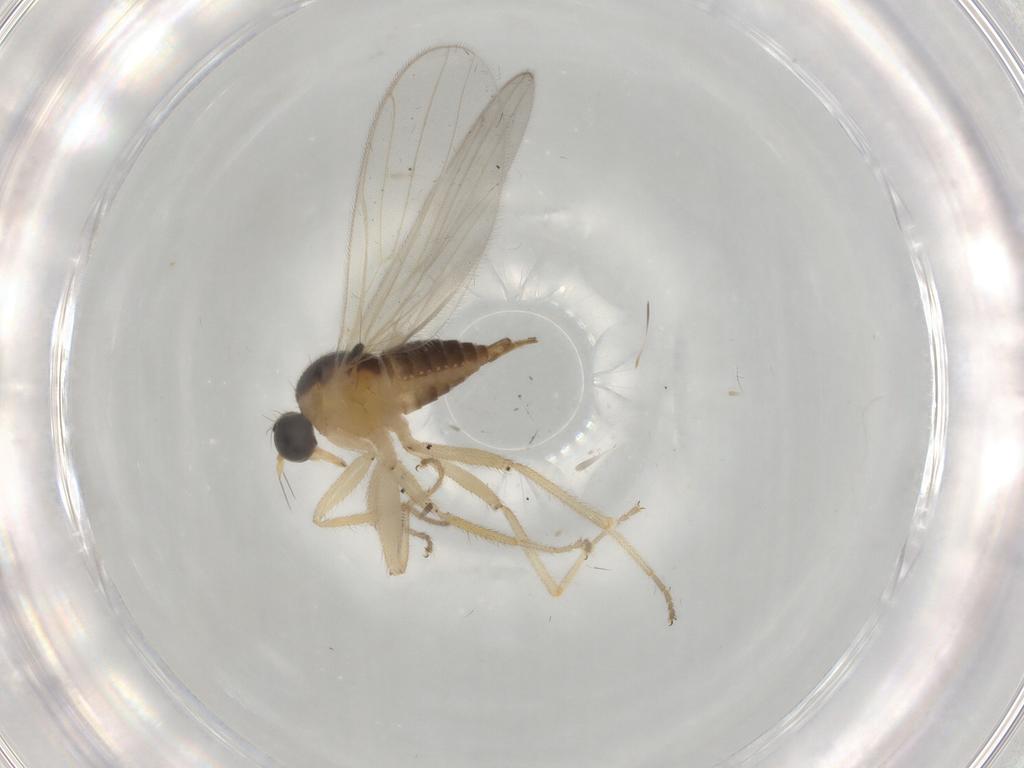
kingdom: Animalia
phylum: Arthropoda
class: Insecta
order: Diptera
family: Hybotidae
